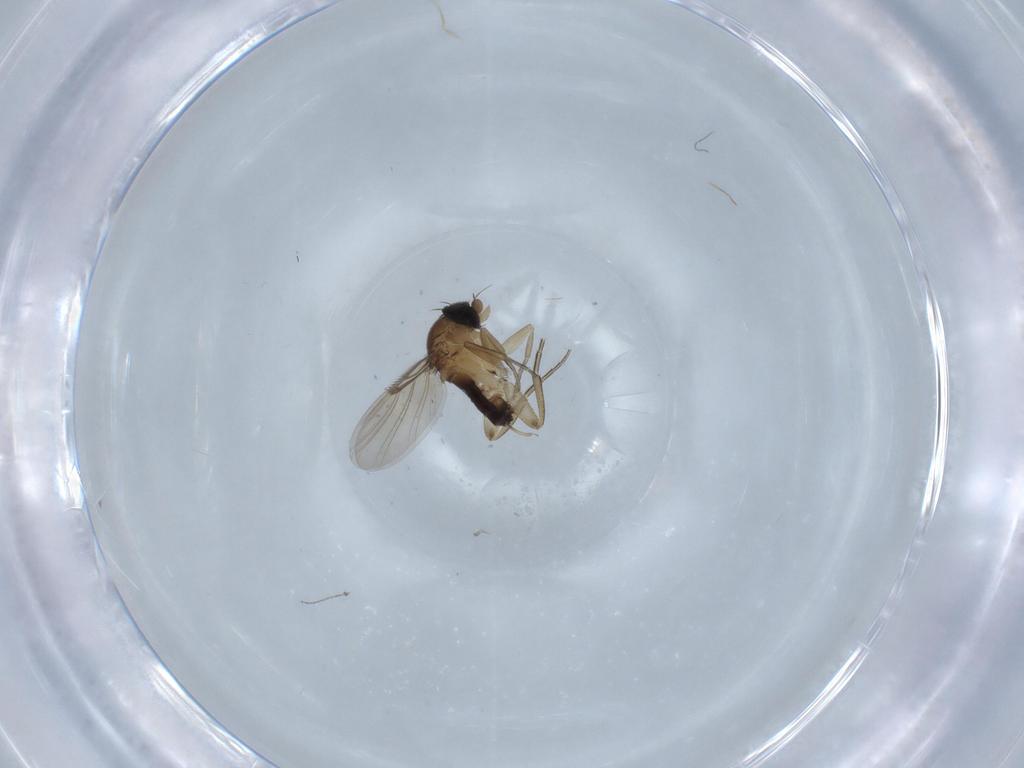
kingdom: Animalia
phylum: Arthropoda
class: Insecta
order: Diptera
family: Phoridae
